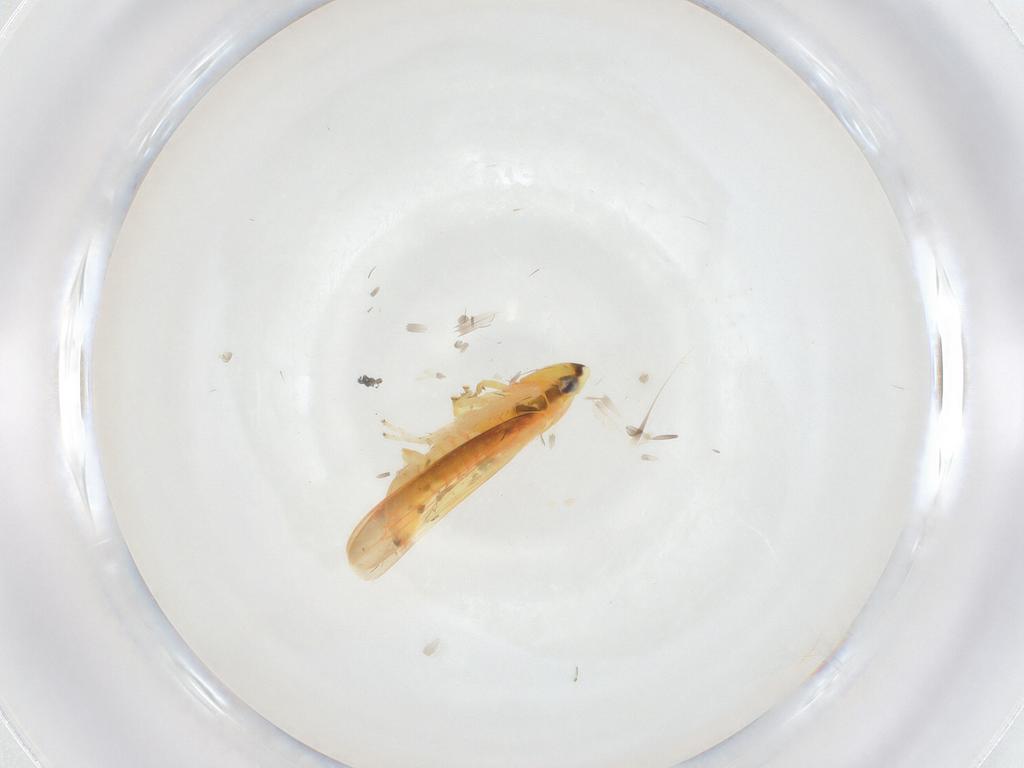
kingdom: Animalia
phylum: Arthropoda
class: Insecta
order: Hemiptera
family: Cicadellidae
